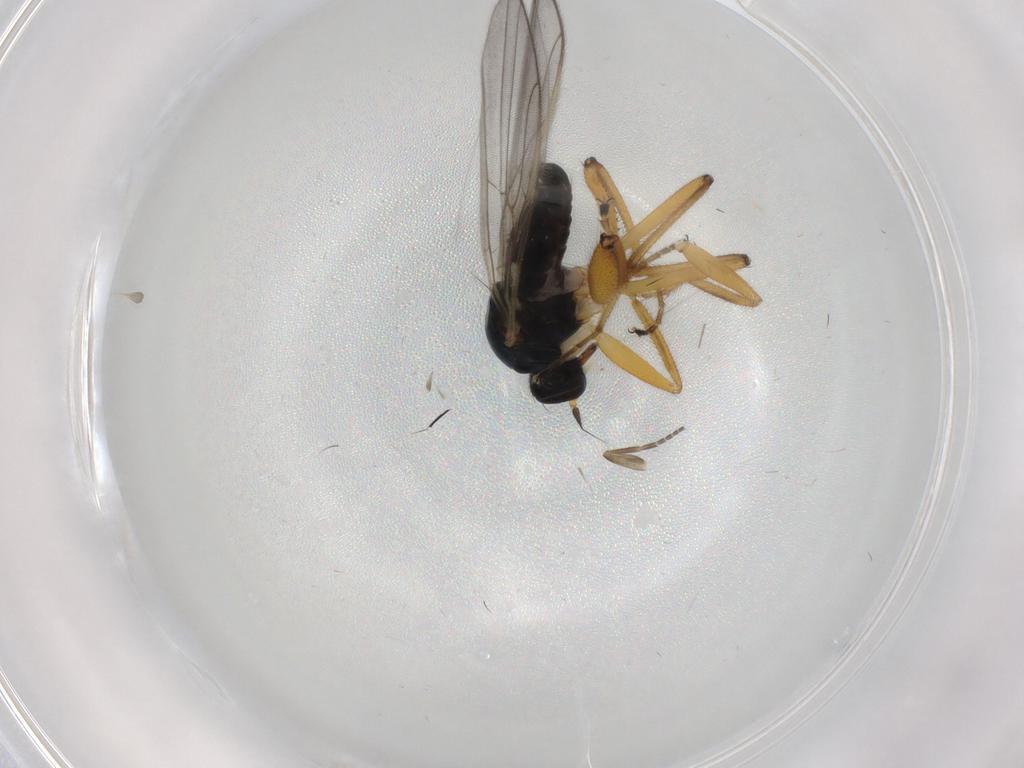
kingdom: Animalia
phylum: Arthropoda
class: Insecta
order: Diptera
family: Hybotidae
